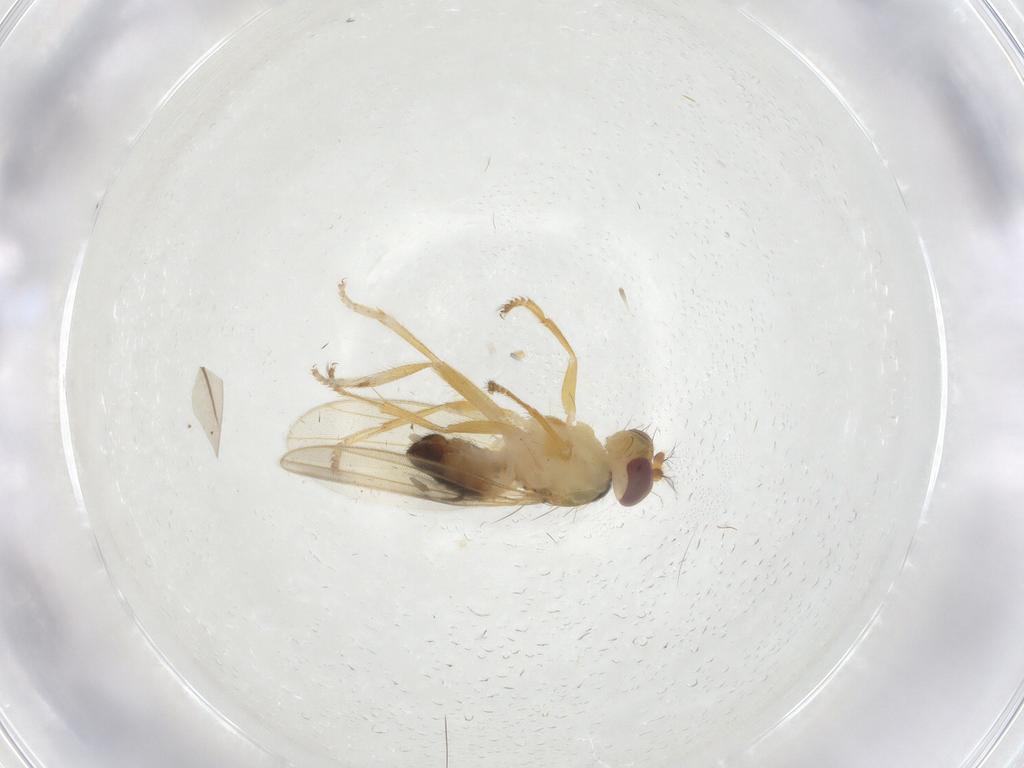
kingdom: Animalia
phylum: Arthropoda
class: Insecta
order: Diptera
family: Periscelididae
